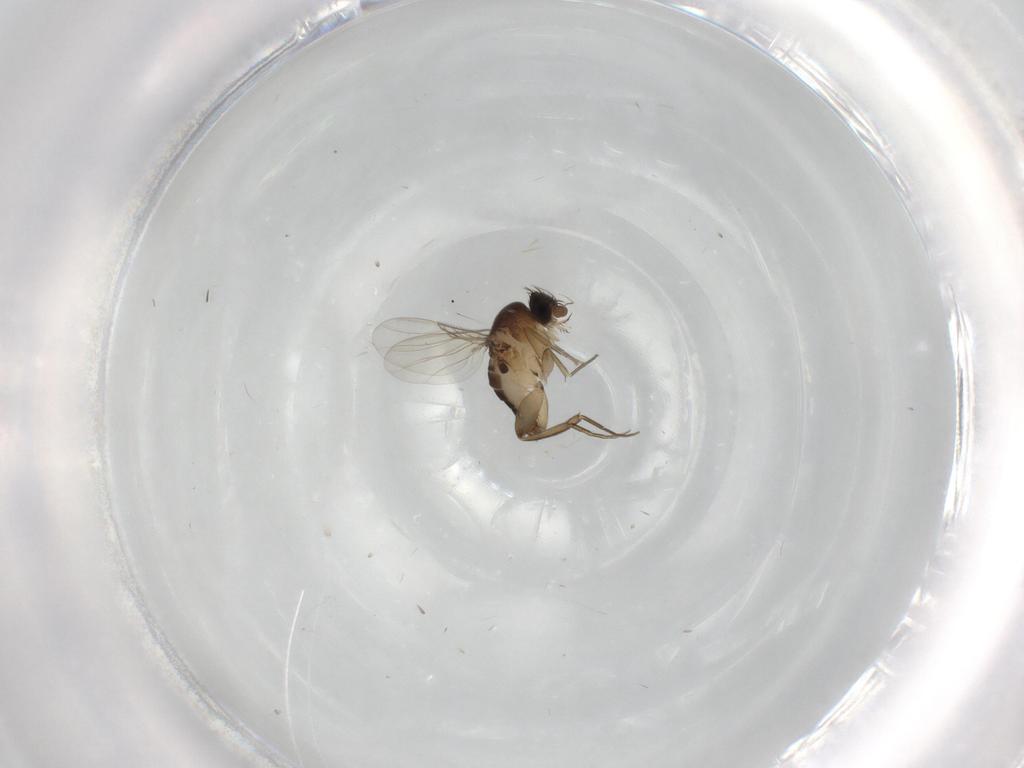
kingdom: Animalia
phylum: Arthropoda
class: Insecta
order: Diptera
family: Phoridae
